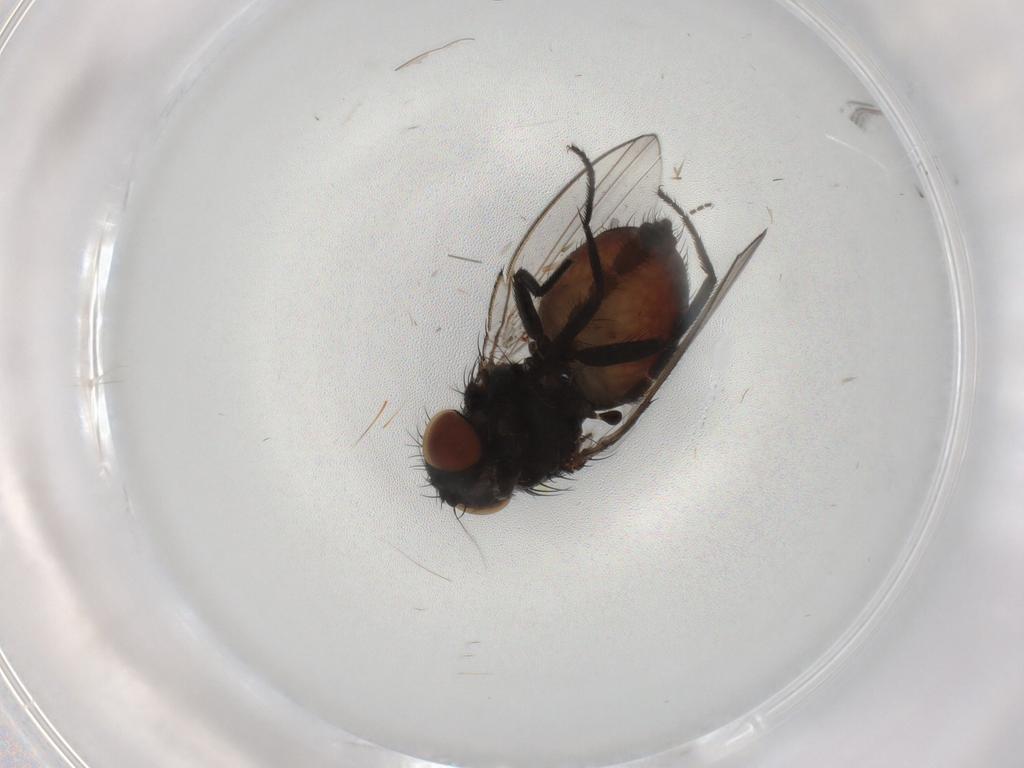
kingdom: Animalia
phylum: Arthropoda
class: Insecta
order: Diptera
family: Milichiidae
